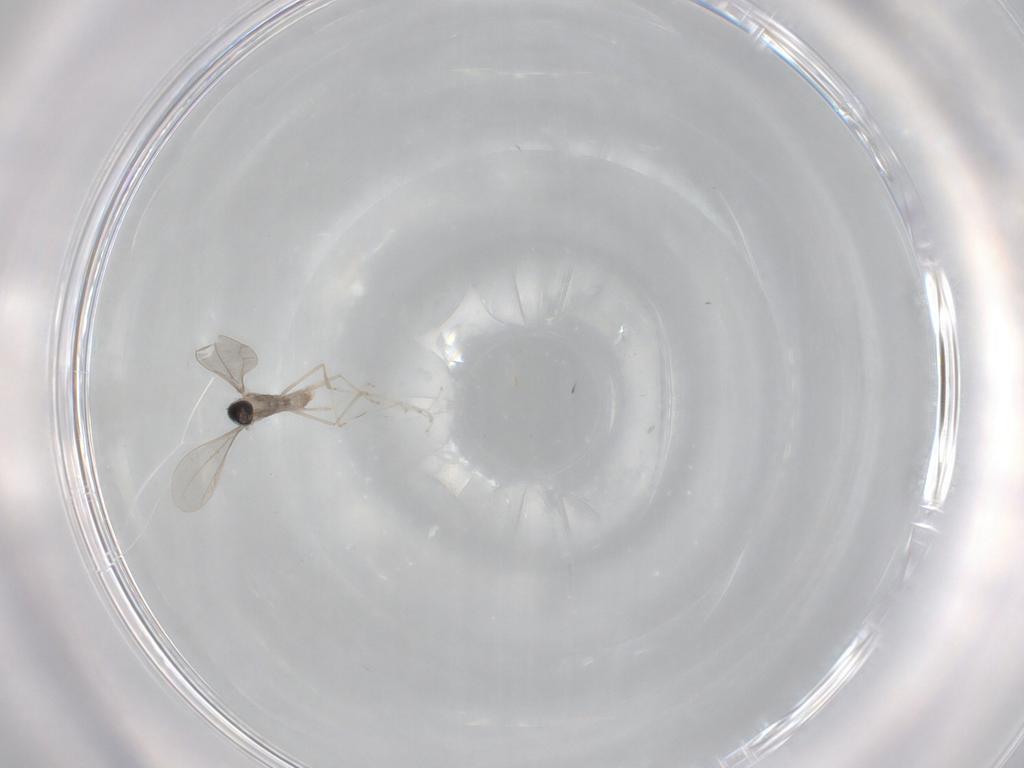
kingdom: Animalia
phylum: Arthropoda
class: Insecta
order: Diptera
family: Cecidomyiidae
